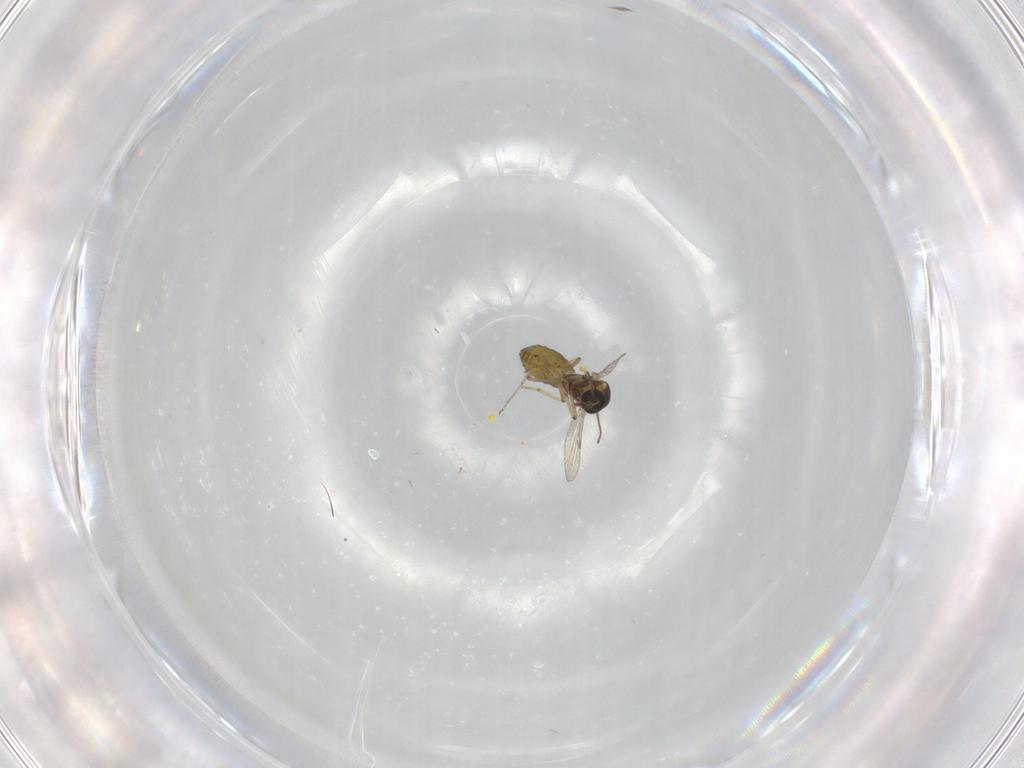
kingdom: Animalia
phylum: Arthropoda
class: Insecta
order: Diptera
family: Ceratopogonidae
